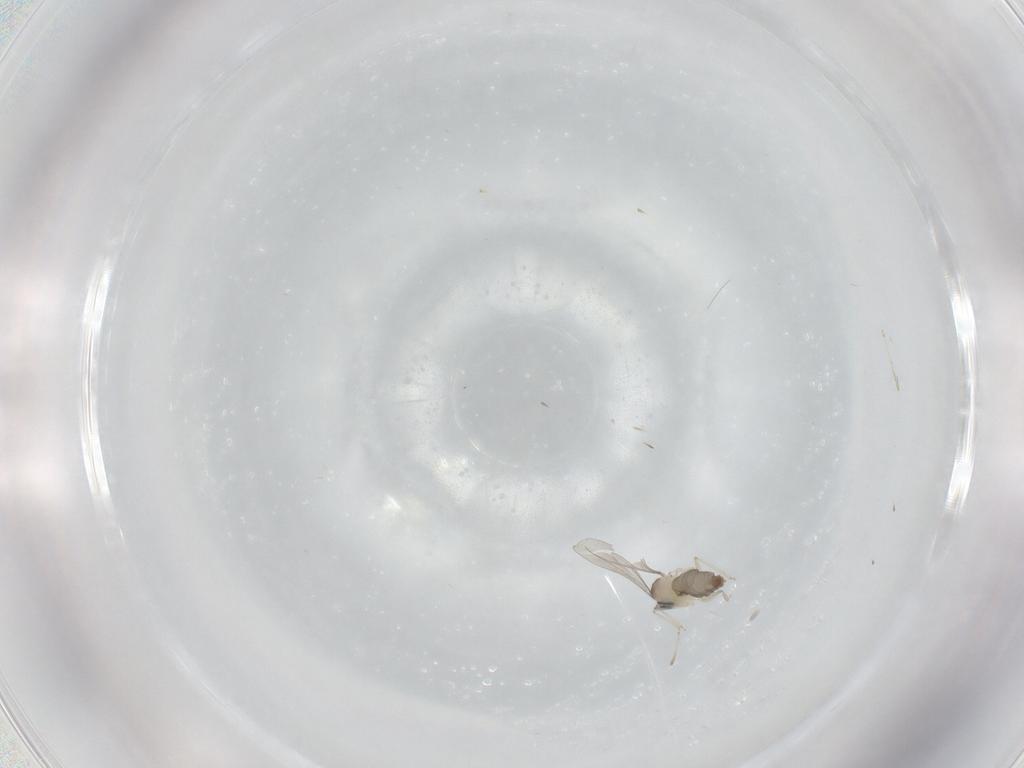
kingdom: Animalia
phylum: Arthropoda
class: Insecta
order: Diptera
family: Cecidomyiidae
